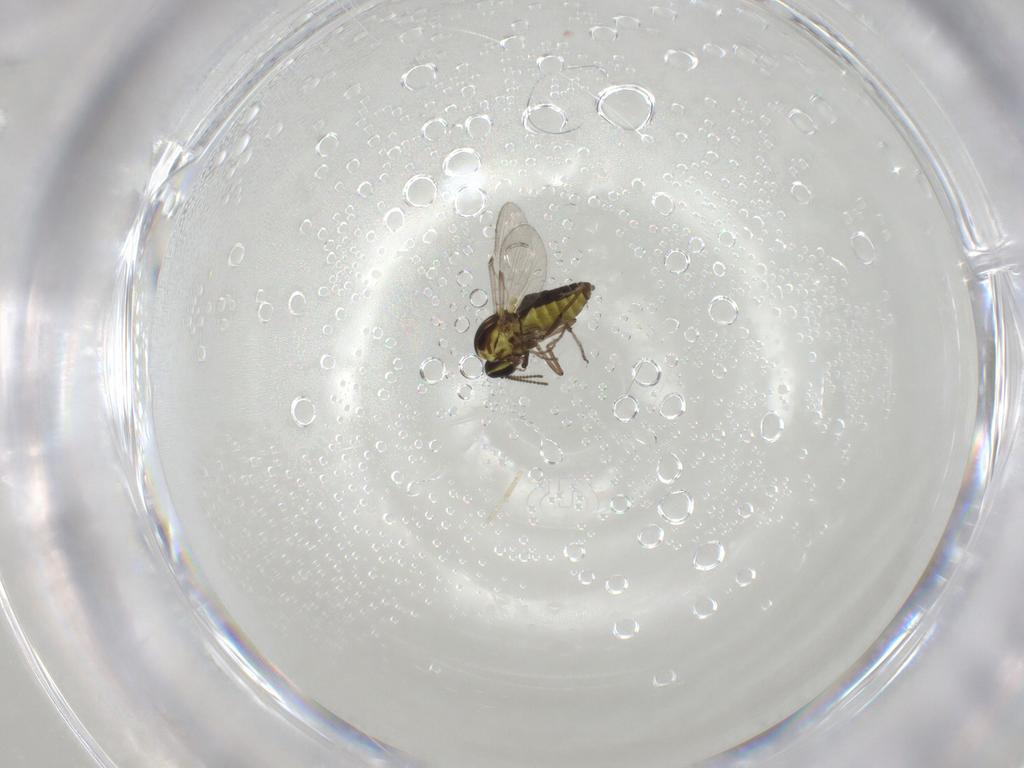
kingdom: Animalia
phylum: Arthropoda
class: Insecta
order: Diptera
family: Ceratopogonidae
